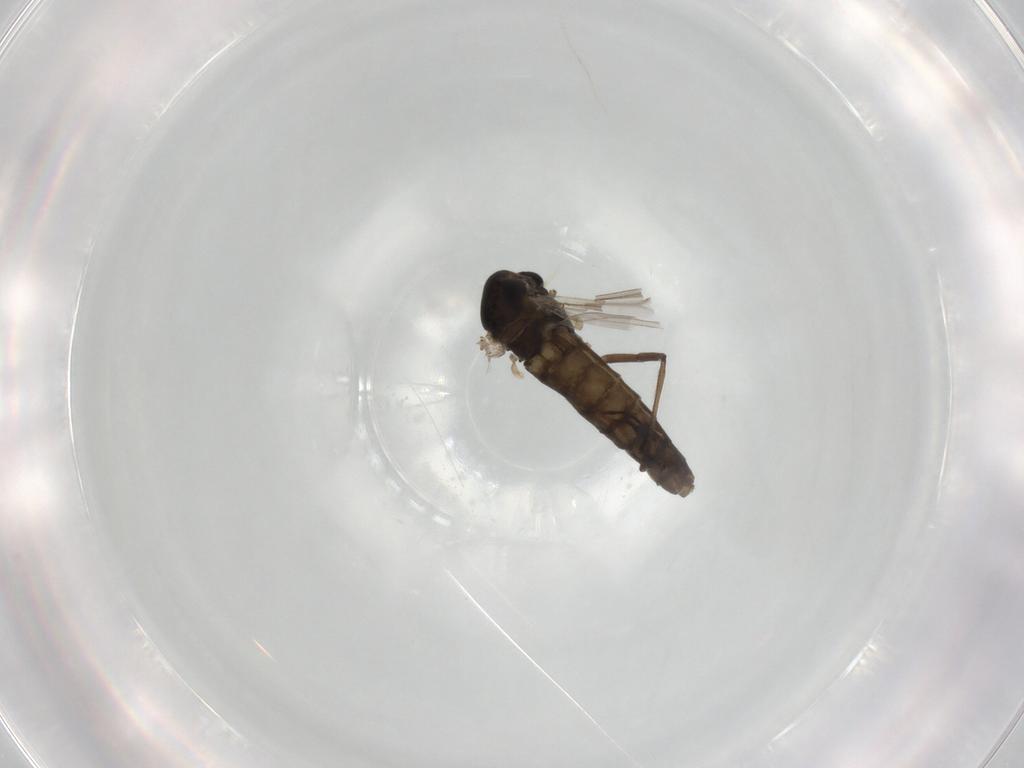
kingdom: Animalia
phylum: Arthropoda
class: Insecta
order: Diptera
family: Chironomidae
